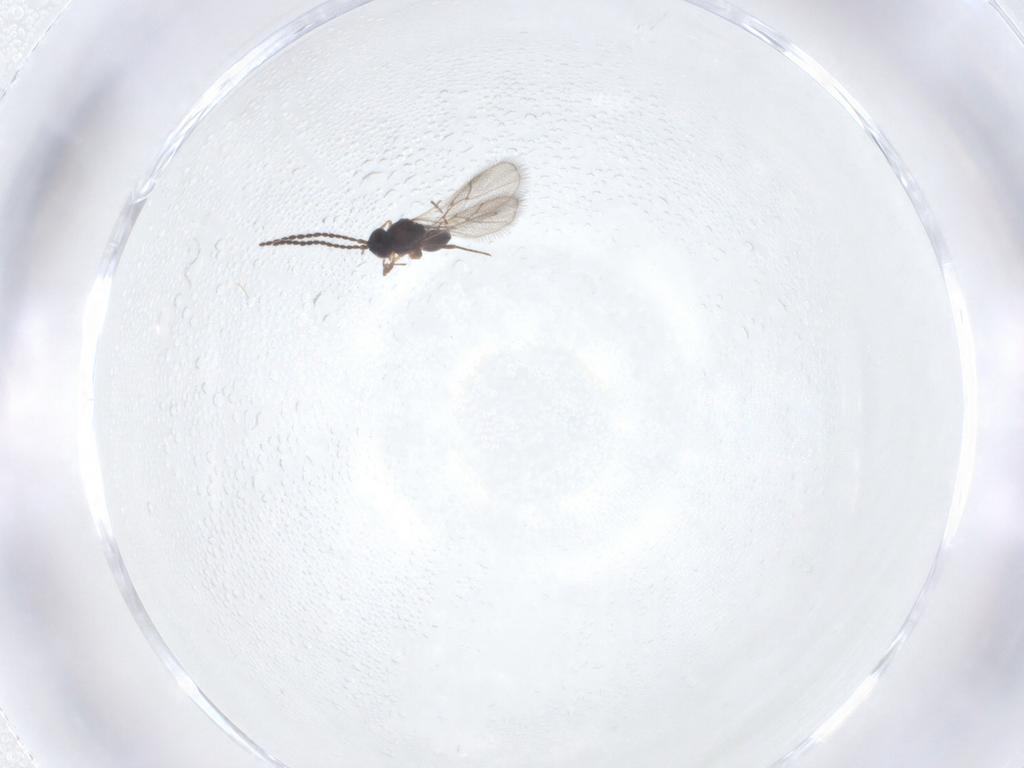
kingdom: Animalia
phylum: Arthropoda
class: Insecta
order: Hymenoptera
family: Figitidae
